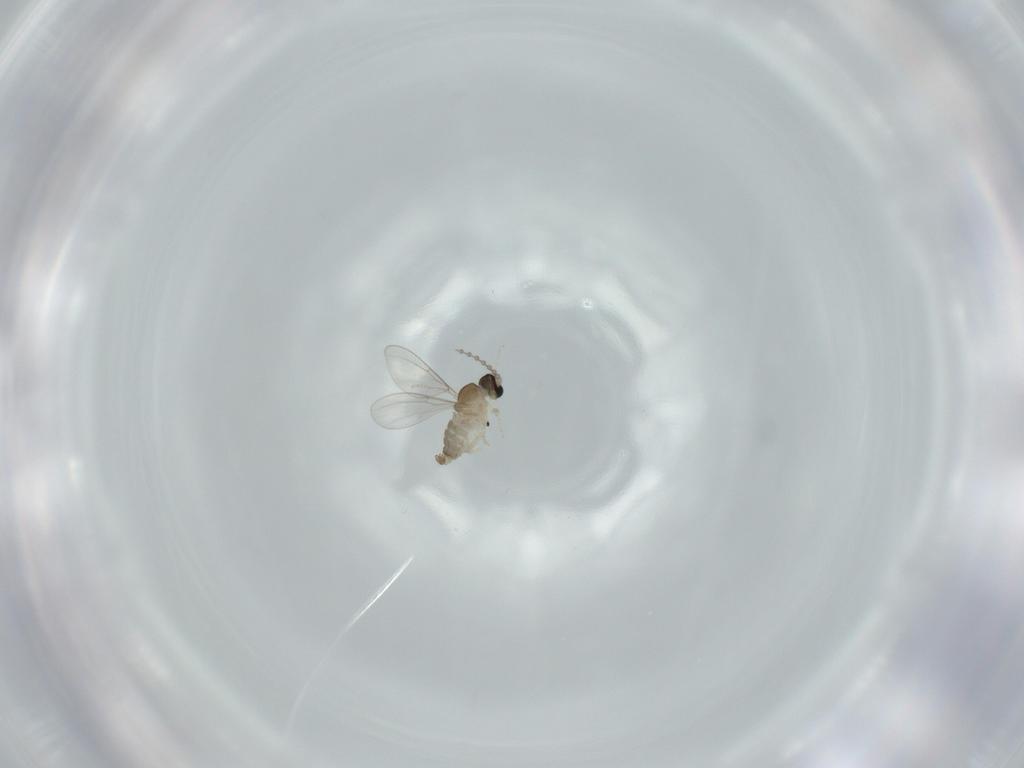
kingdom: Animalia
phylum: Arthropoda
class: Insecta
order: Diptera
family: Cecidomyiidae
